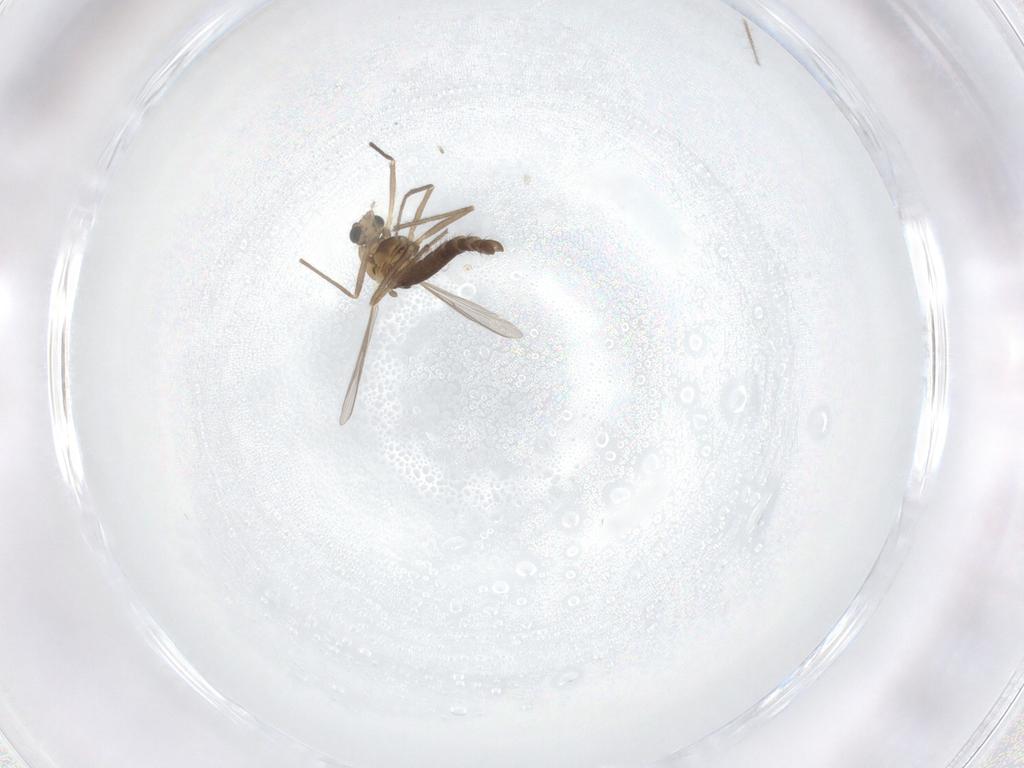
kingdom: Animalia
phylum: Arthropoda
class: Insecta
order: Diptera
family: Chironomidae
